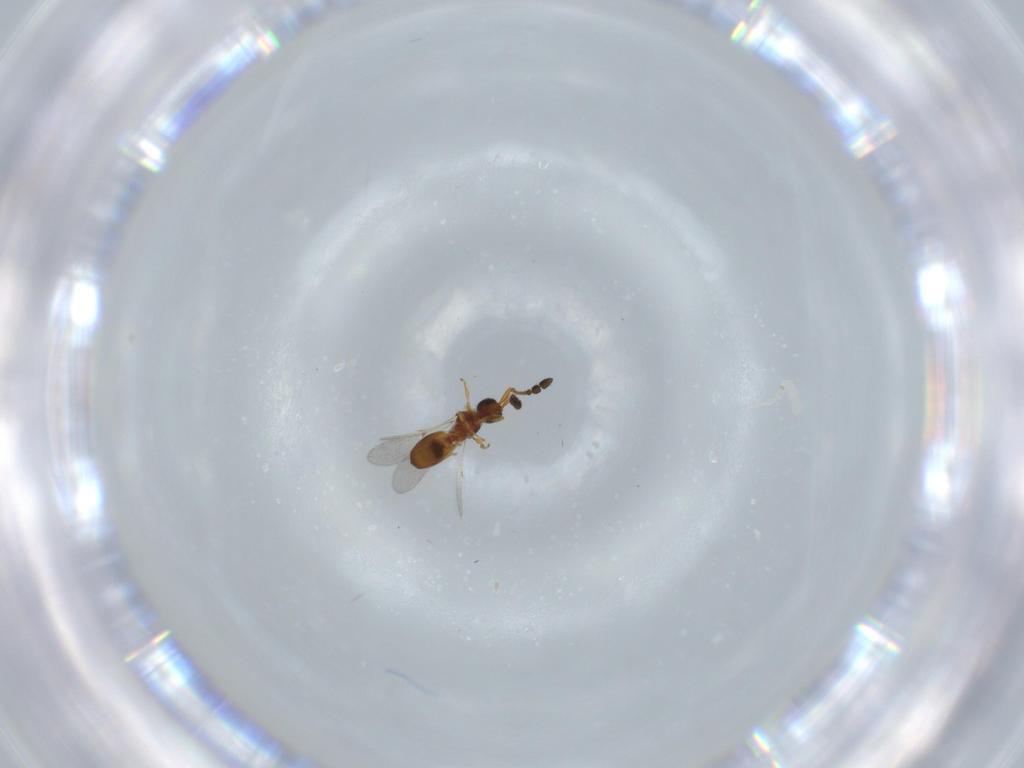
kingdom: Animalia
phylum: Arthropoda
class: Insecta
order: Hymenoptera
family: Diapriidae
